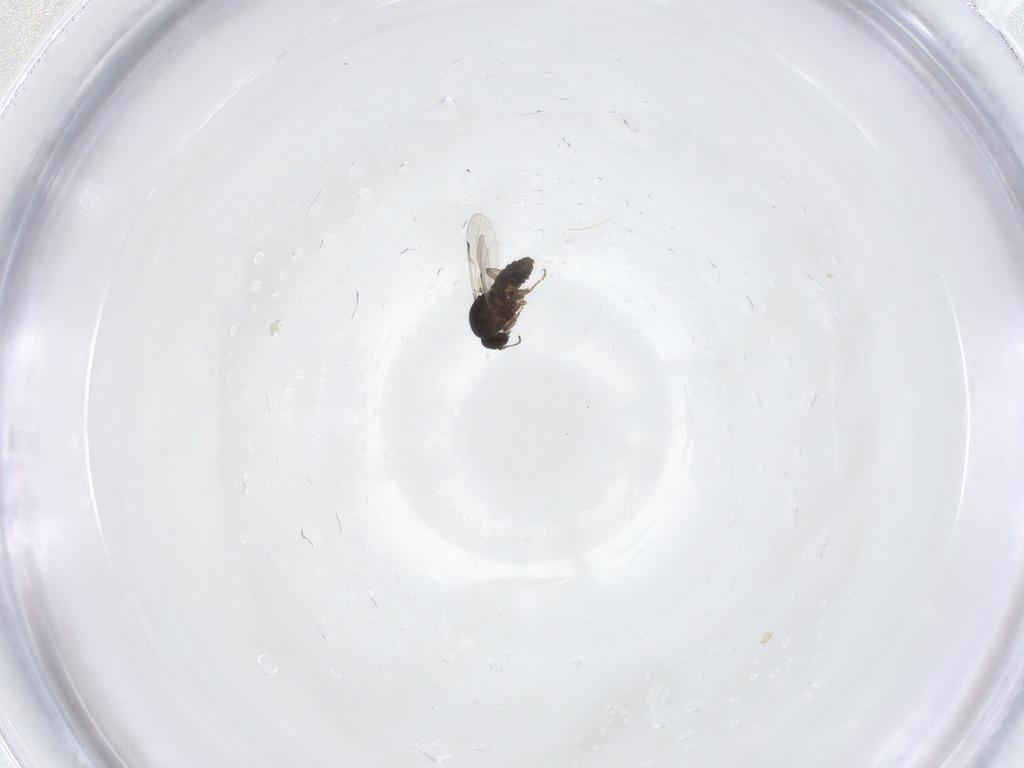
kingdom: Animalia
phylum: Arthropoda
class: Insecta
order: Diptera
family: Ceratopogonidae
